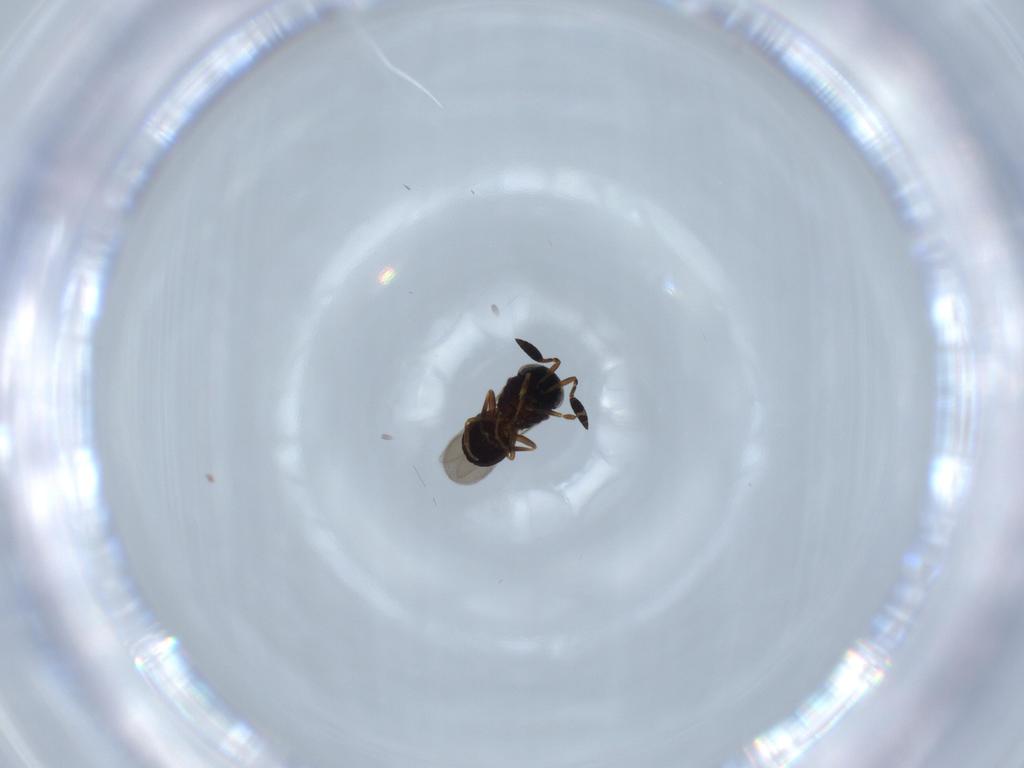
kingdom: Animalia
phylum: Arthropoda
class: Insecta
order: Hymenoptera
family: Scelionidae
